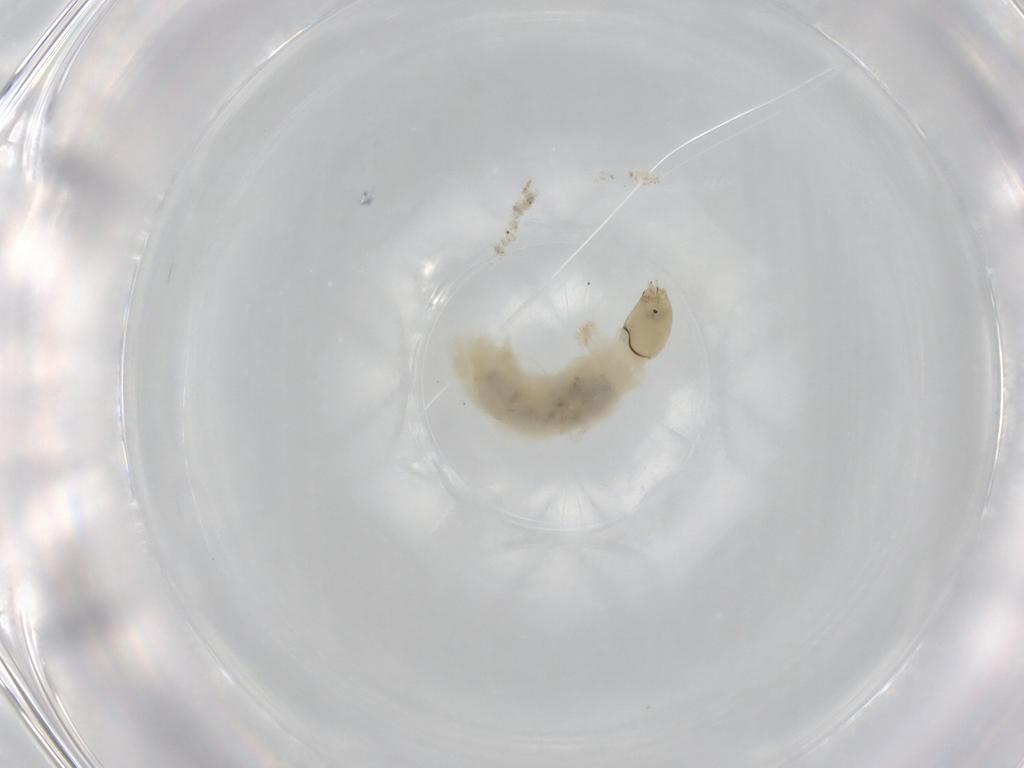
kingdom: Animalia
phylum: Arthropoda
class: Insecta
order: Diptera
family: Chironomidae
